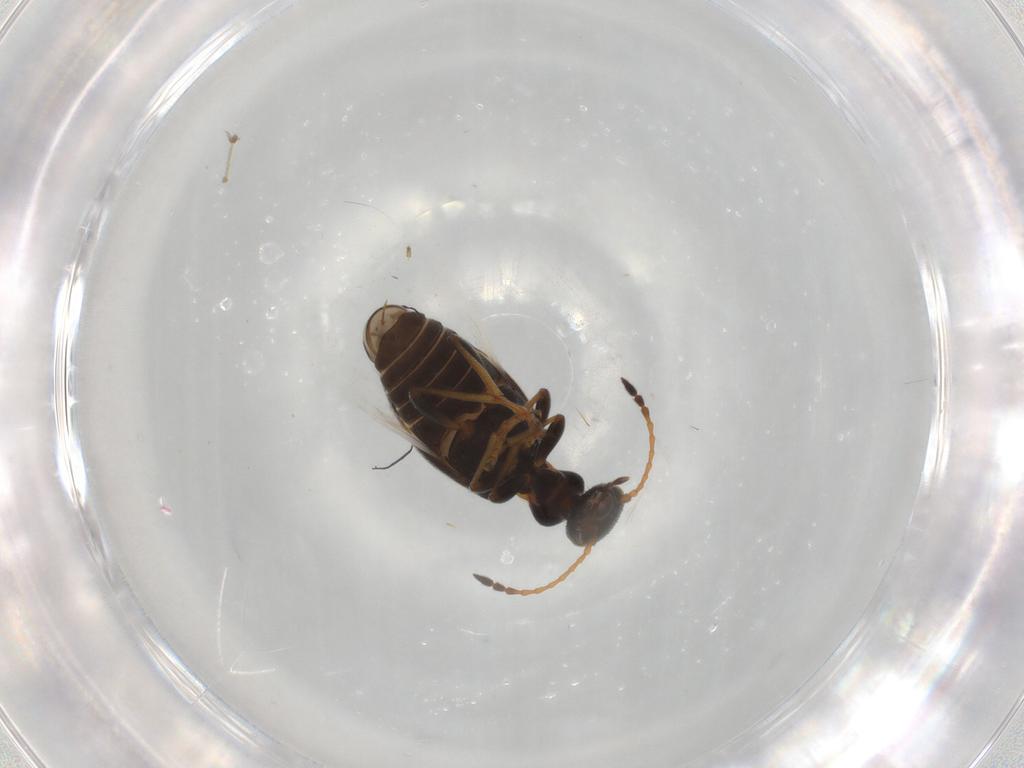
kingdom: Animalia
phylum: Arthropoda
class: Insecta
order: Coleoptera
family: Anthicidae
